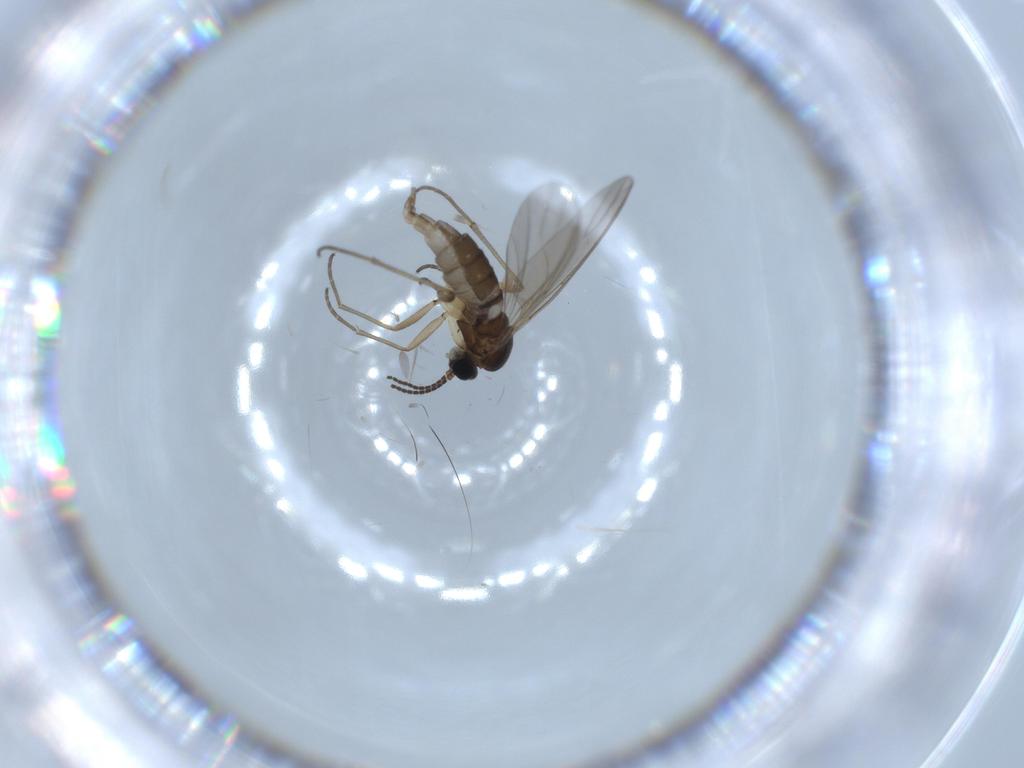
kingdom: Animalia
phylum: Arthropoda
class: Insecta
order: Diptera
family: Sciaridae
